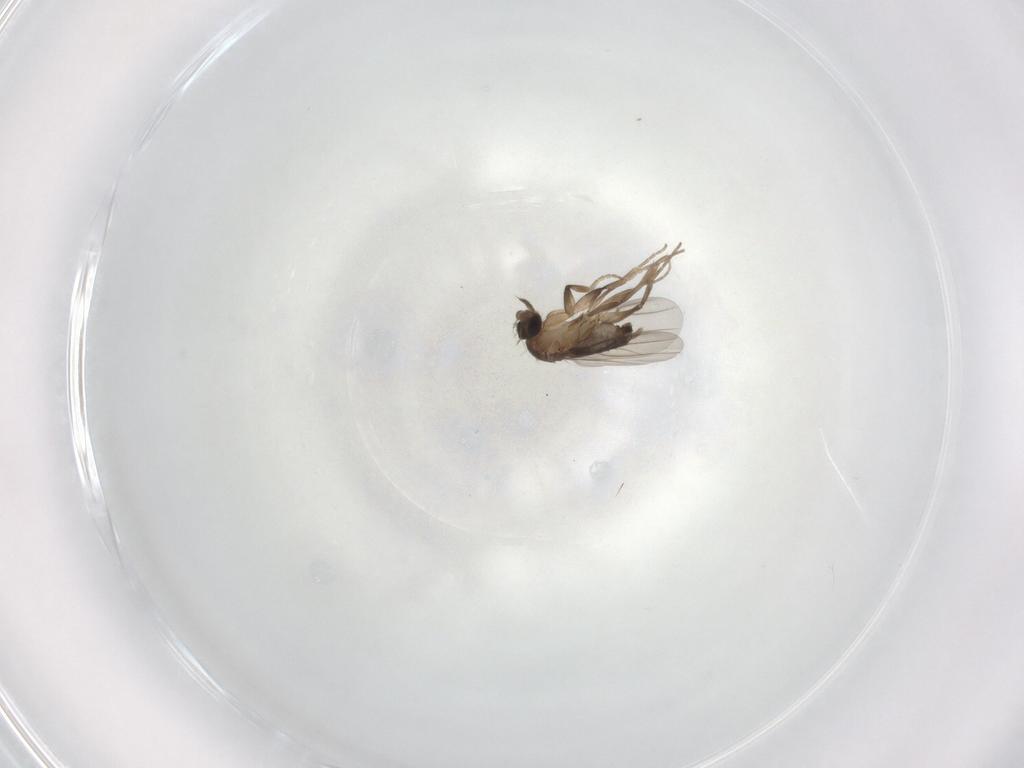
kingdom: Animalia
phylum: Arthropoda
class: Insecta
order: Diptera
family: Phoridae
